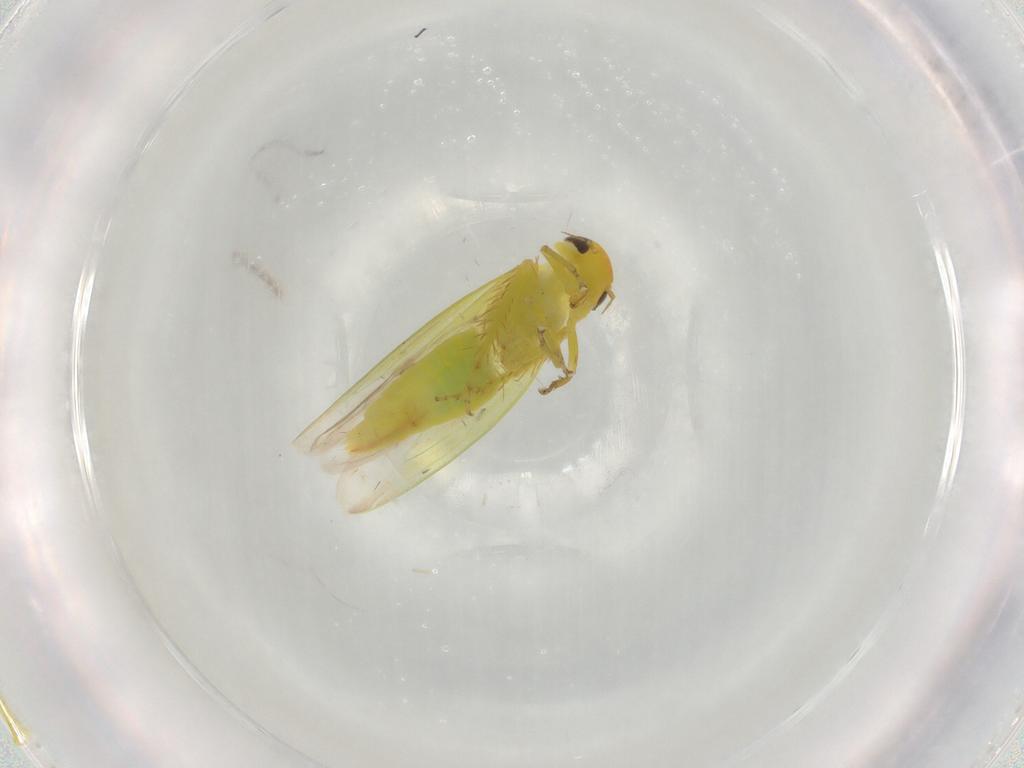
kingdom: Animalia
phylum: Arthropoda
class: Insecta
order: Hemiptera
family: Cicadellidae
